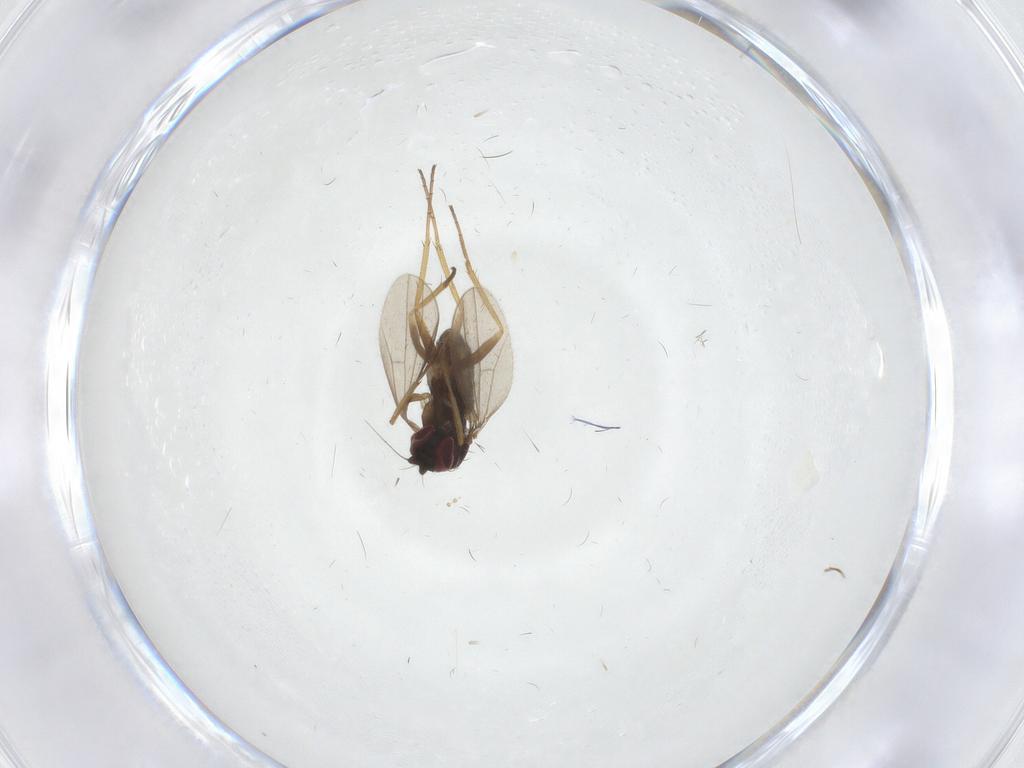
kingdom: Animalia
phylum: Arthropoda
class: Insecta
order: Diptera
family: Dolichopodidae
